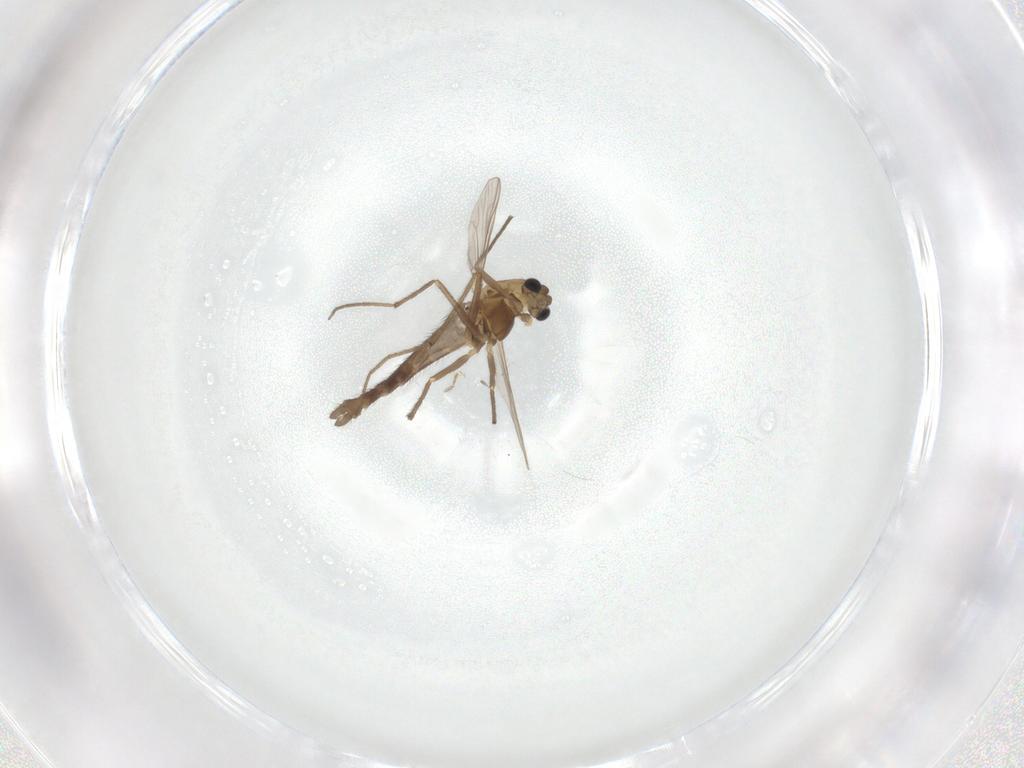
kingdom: Animalia
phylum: Arthropoda
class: Insecta
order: Diptera
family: Chironomidae
